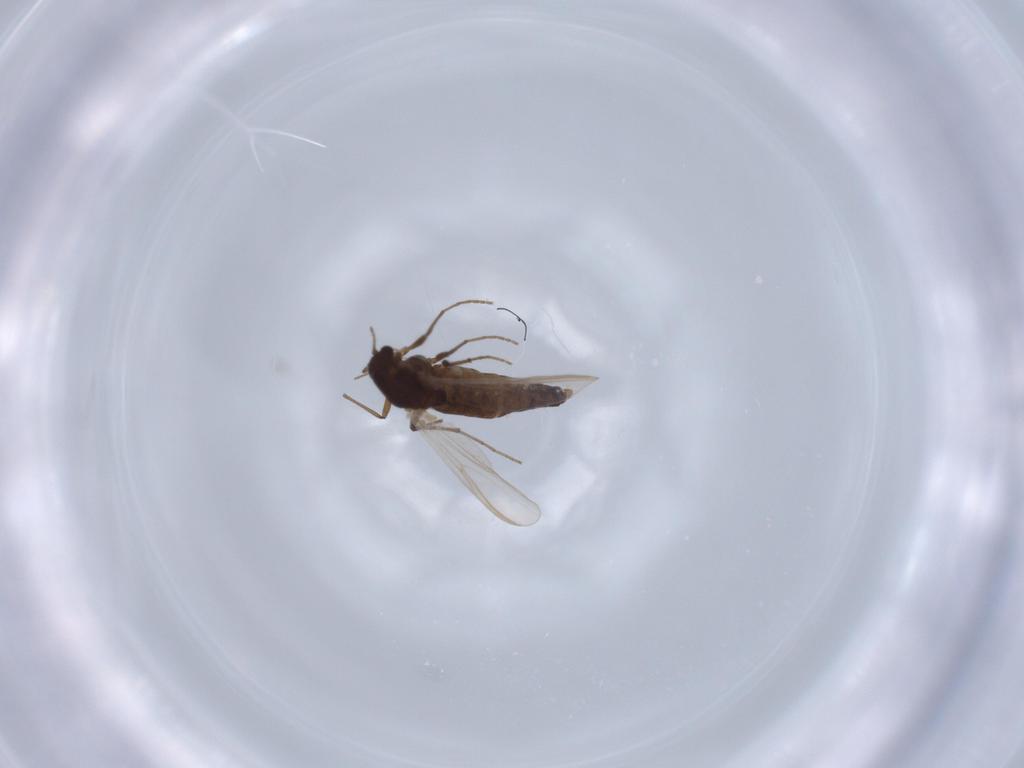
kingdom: Animalia
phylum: Arthropoda
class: Insecta
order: Diptera
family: Chironomidae
